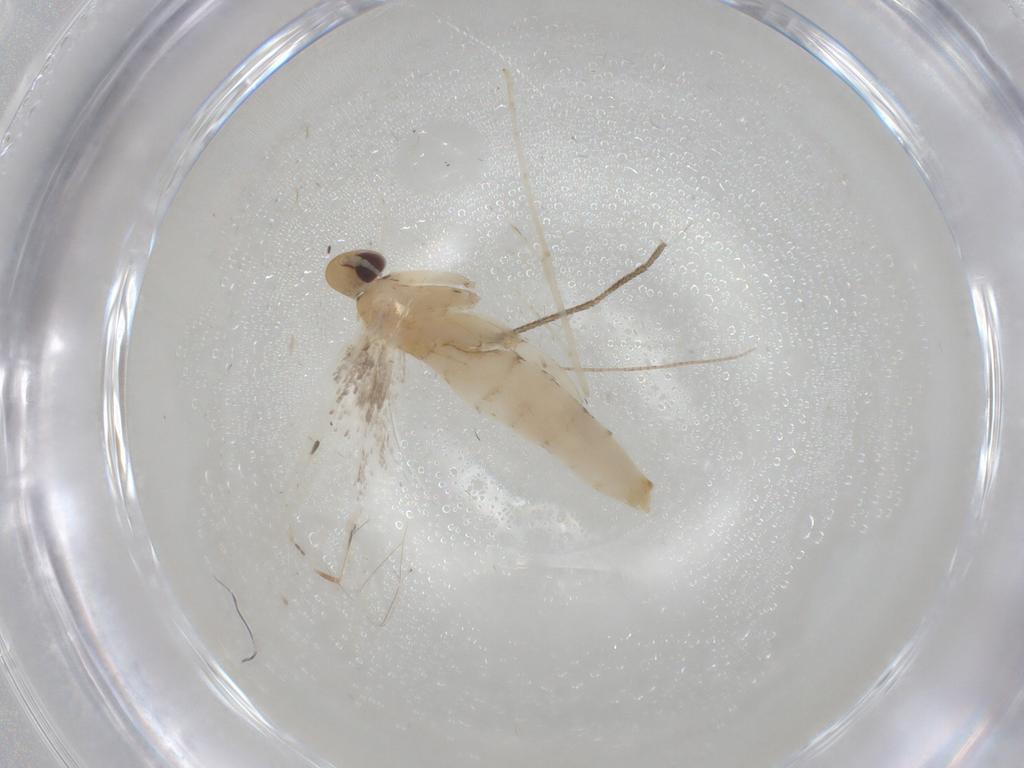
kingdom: Animalia
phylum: Arthropoda
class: Insecta
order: Lepidoptera
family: Gracillariidae
